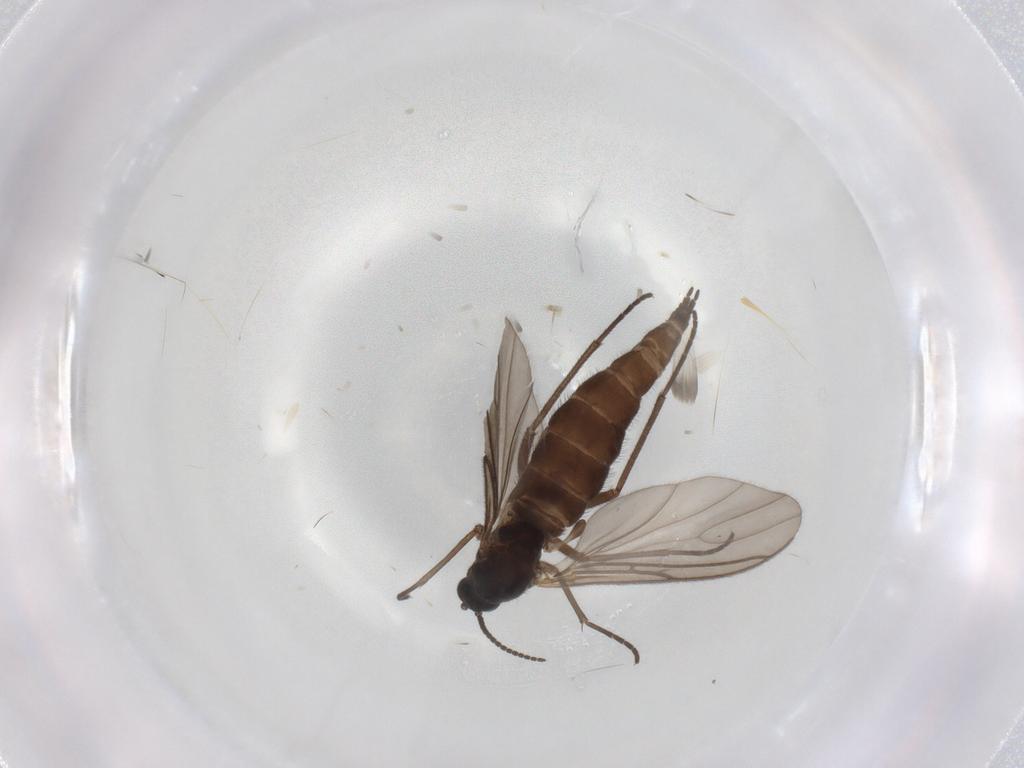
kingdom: Animalia
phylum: Arthropoda
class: Insecta
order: Diptera
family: Sciaridae
